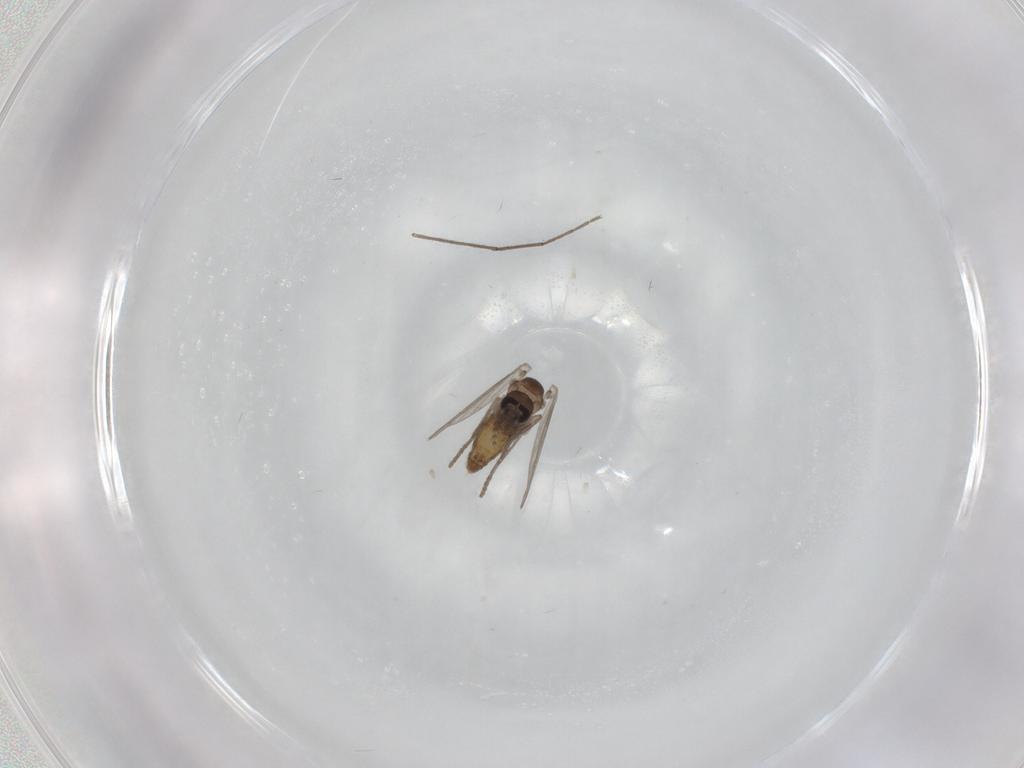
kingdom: Animalia
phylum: Arthropoda
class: Insecta
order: Diptera
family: Psychodidae
